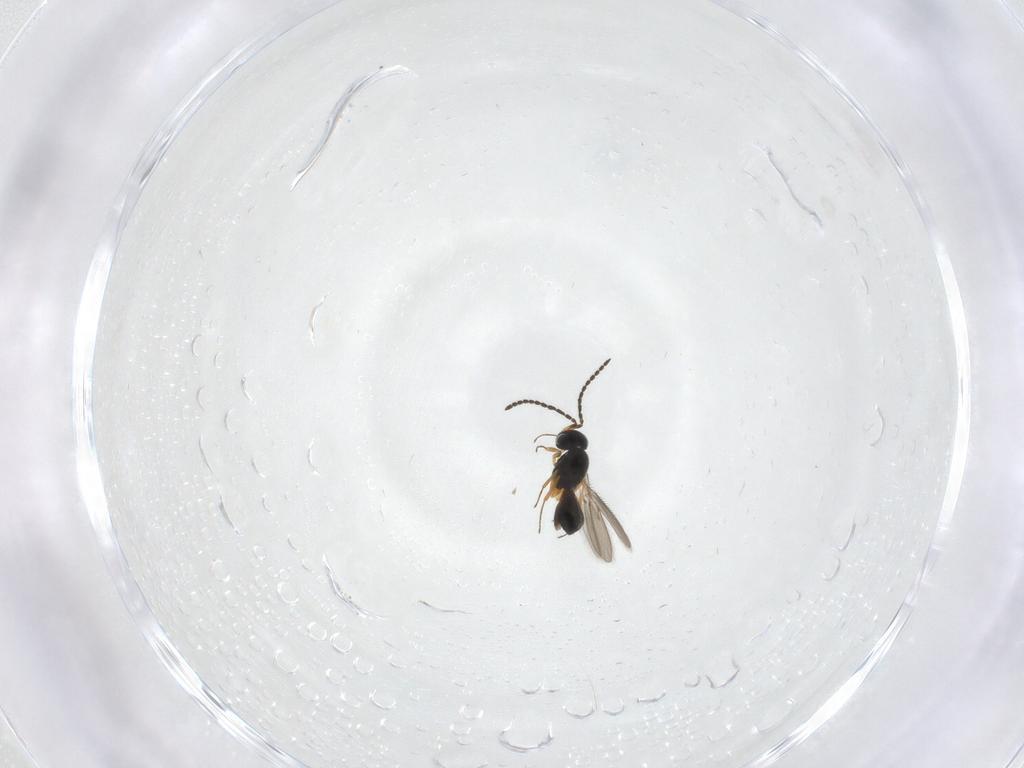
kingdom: Animalia
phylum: Arthropoda
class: Insecta
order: Hymenoptera
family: Scelionidae
